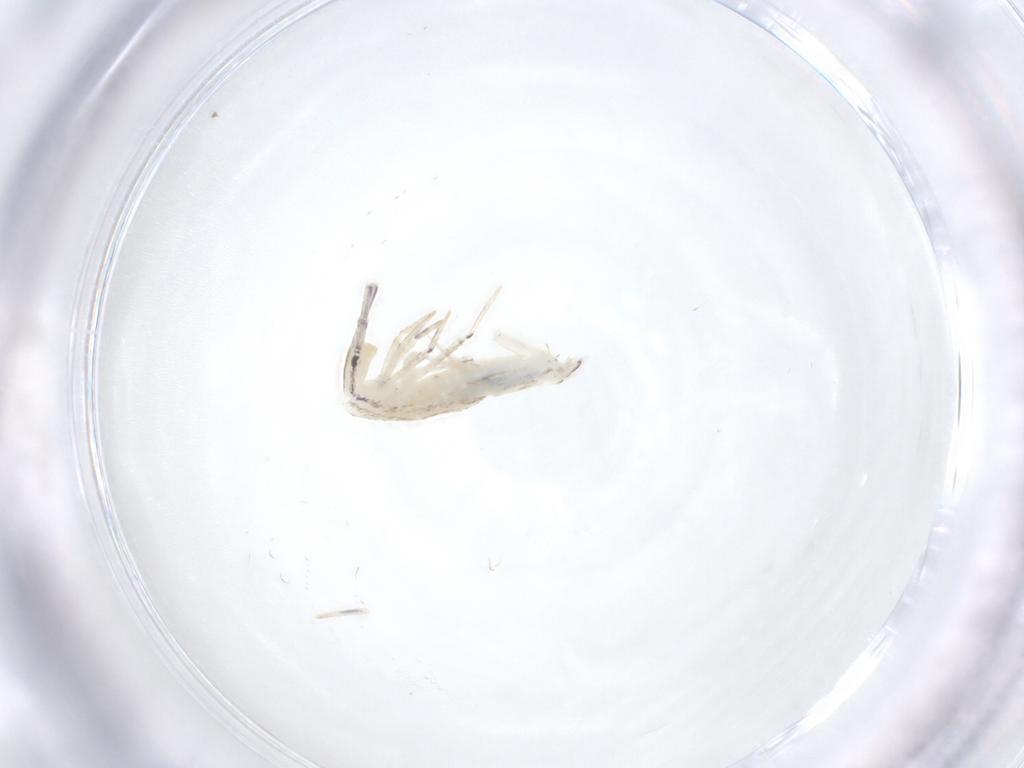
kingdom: Animalia
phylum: Arthropoda
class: Collembola
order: Entomobryomorpha
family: Entomobryidae
